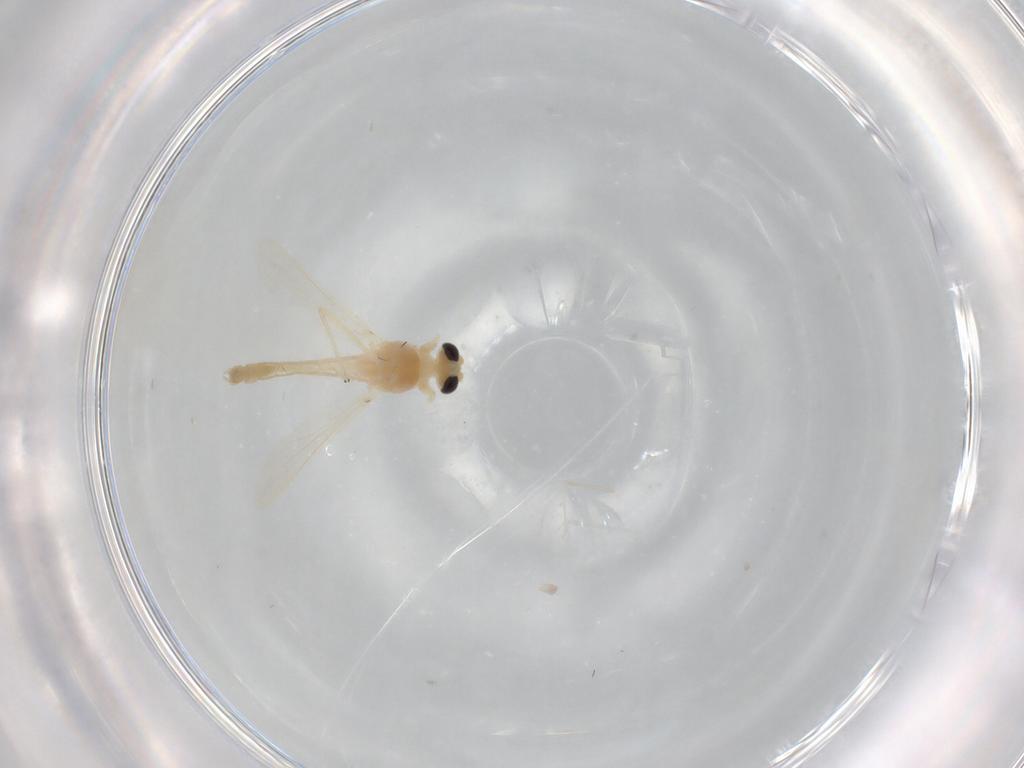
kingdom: Animalia
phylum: Arthropoda
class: Insecta
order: Diptera
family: Chironomidae
